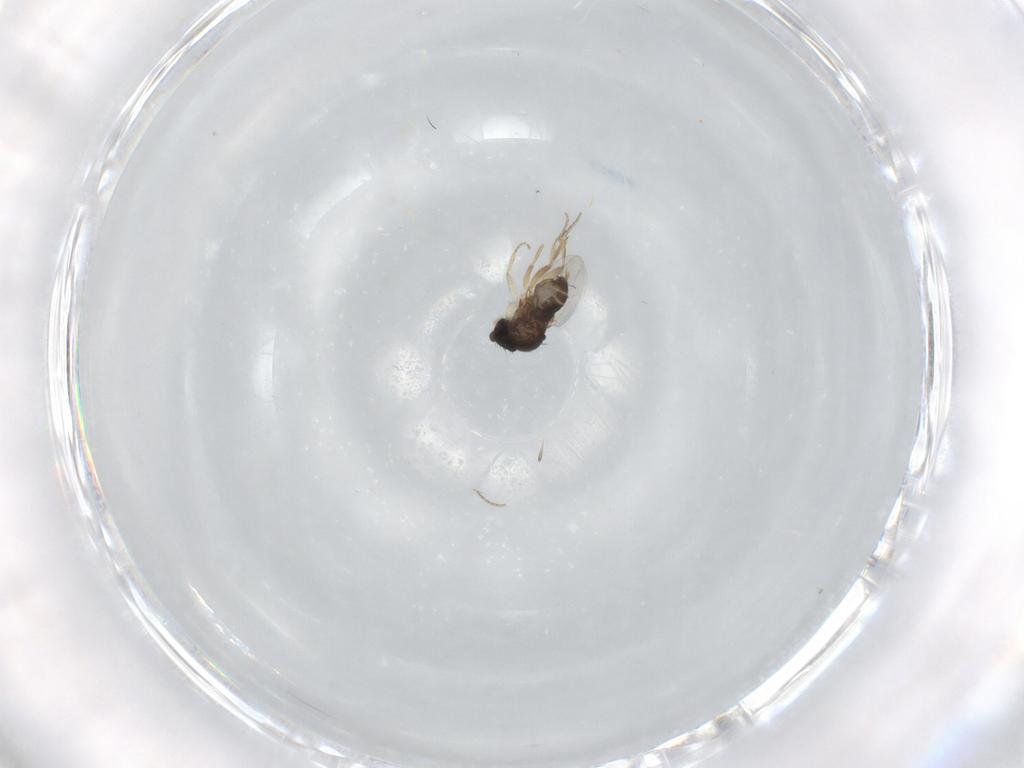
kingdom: Animalia
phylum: Arthropoda
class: Insecta
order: Diptera
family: Phoridae
